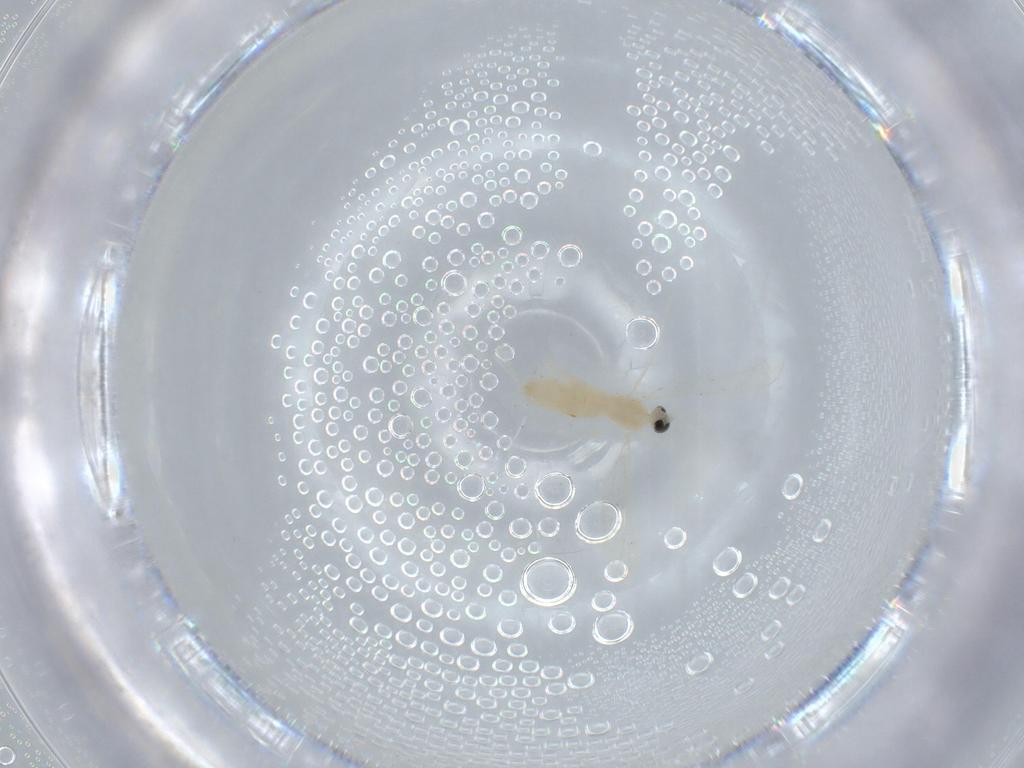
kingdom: Animalia
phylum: Arthropoda
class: Insecta
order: Diptera
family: Cecidomyiidae
